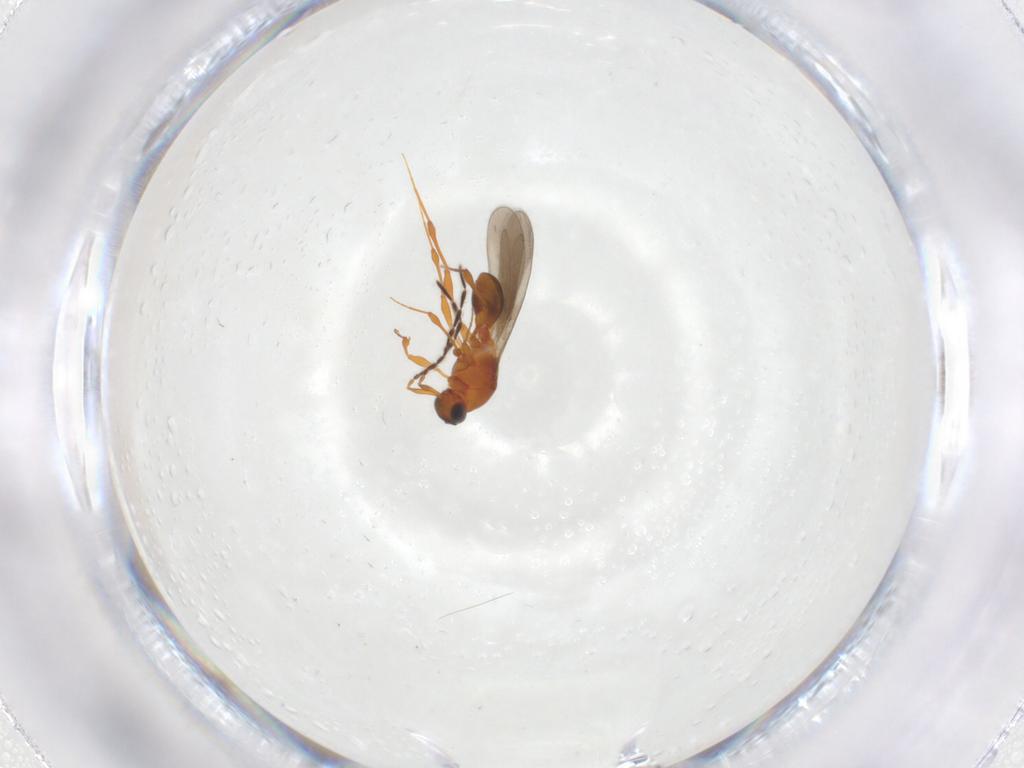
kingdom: Animalia
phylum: Arthropoda
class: Insecta
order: Hymenoptera
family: Platygastridae
